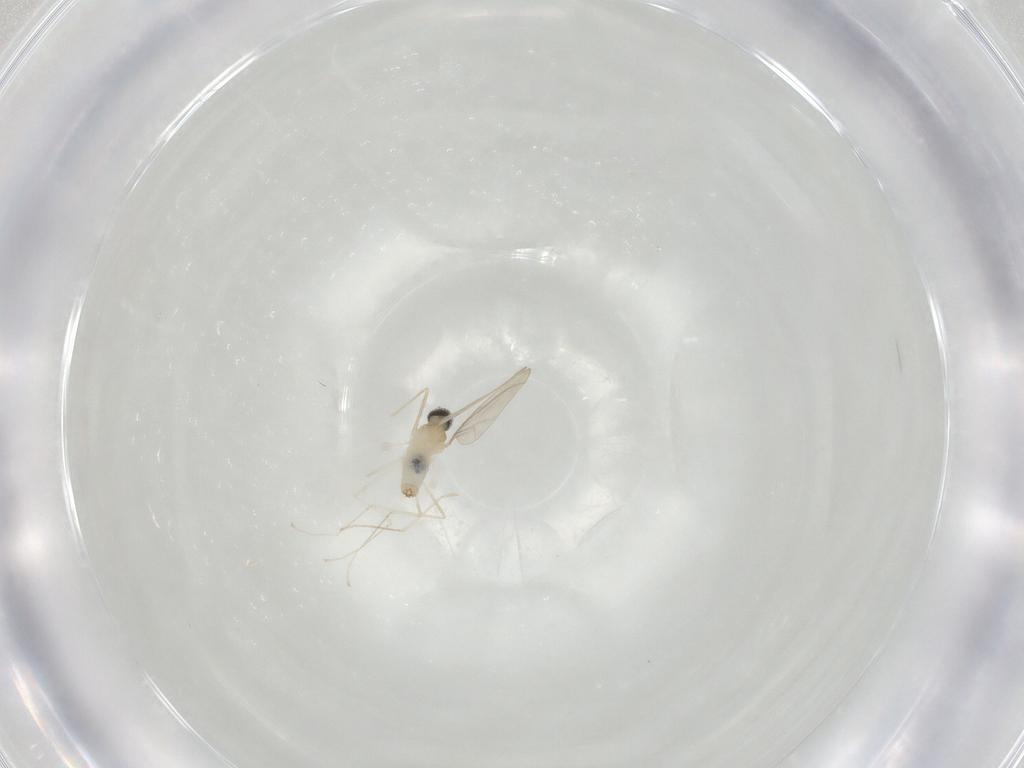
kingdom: Animalia
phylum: Arthropoda
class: Insecta
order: Diptera
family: Cecidomyiidae
